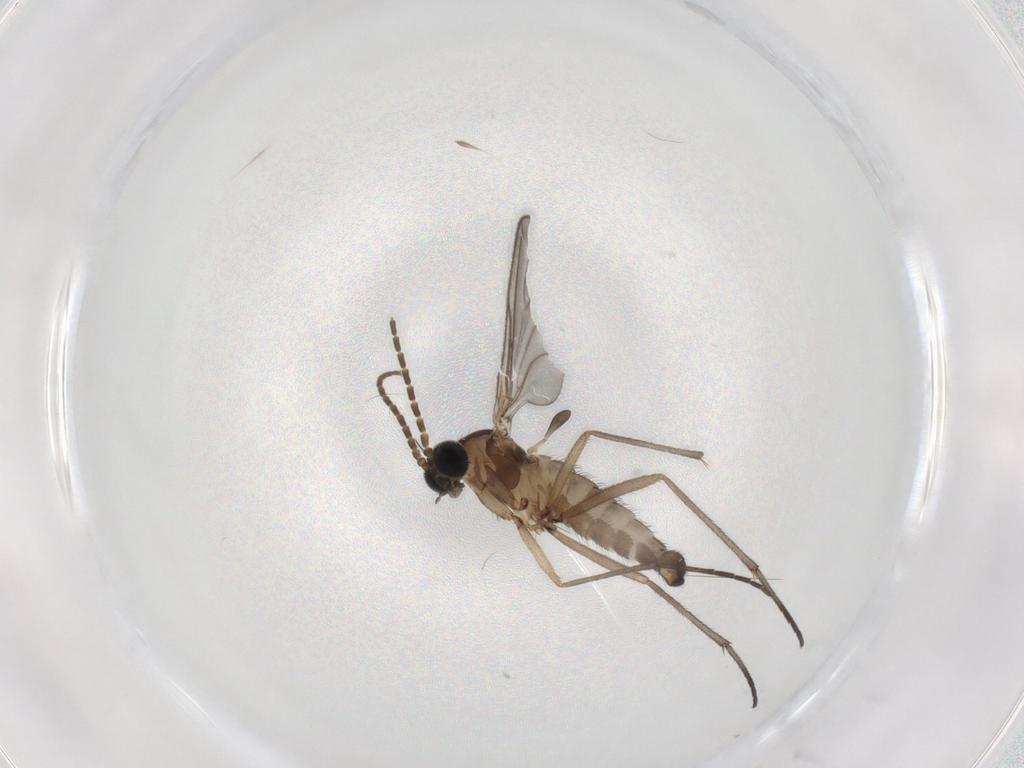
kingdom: Animalia
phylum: Arthropoda
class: Insecta
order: Diptera
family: Sciaridae
